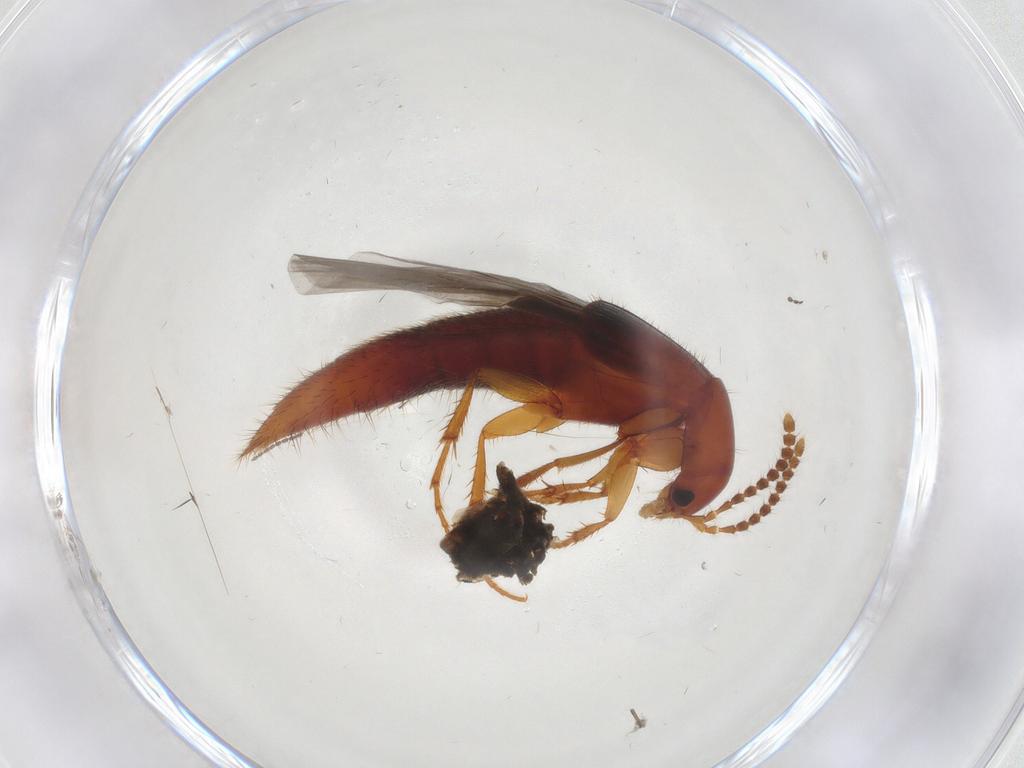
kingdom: Animalia
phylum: Arthropoda
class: Insecta
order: Coleoptera
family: Staphylinidae
